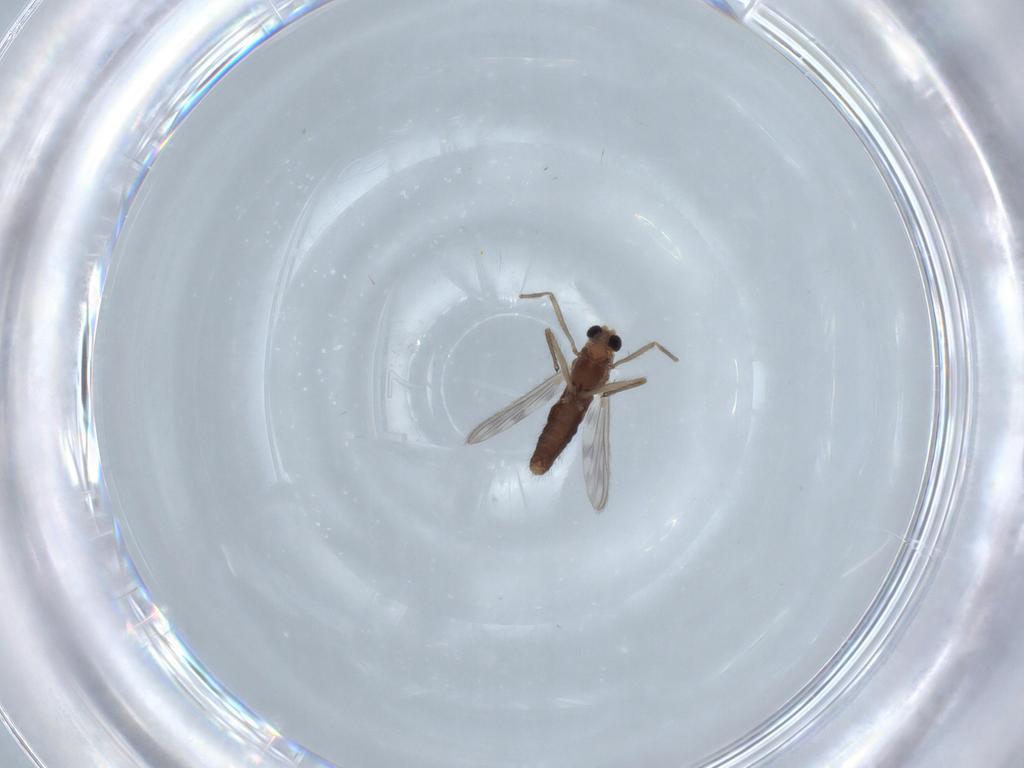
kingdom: Animalia
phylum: Arthropoda
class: Insecta
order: Diptera
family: Chironomidae
